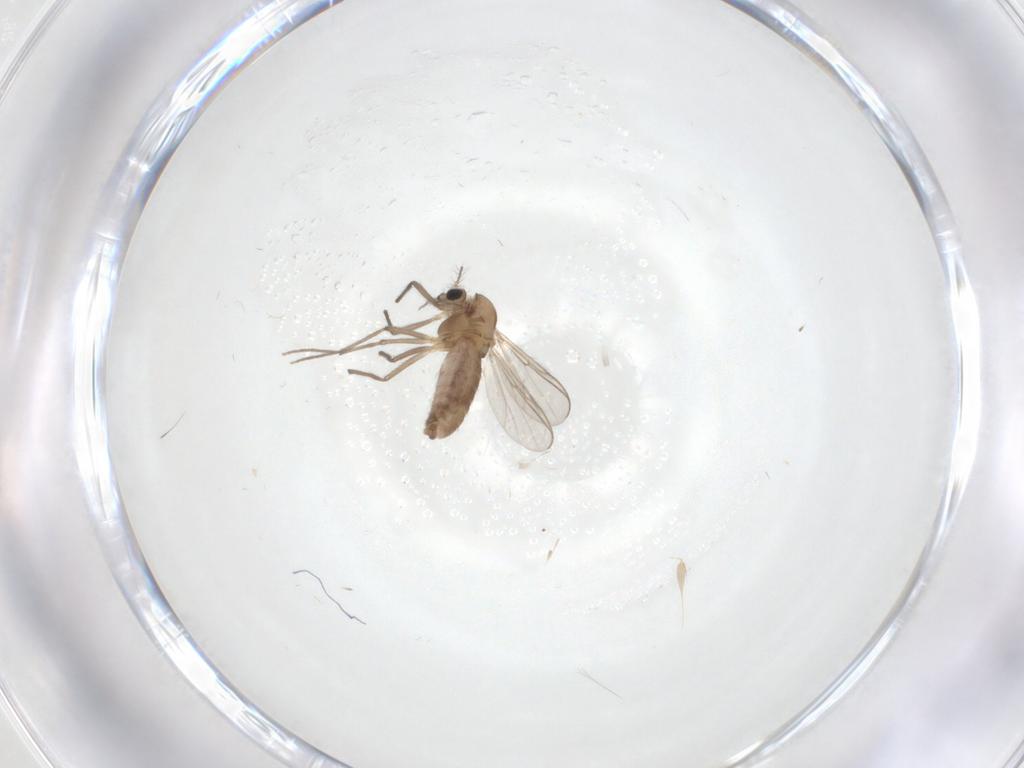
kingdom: Animalia
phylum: Arthropoda
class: Insecta
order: Diptera
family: Chironomidae
